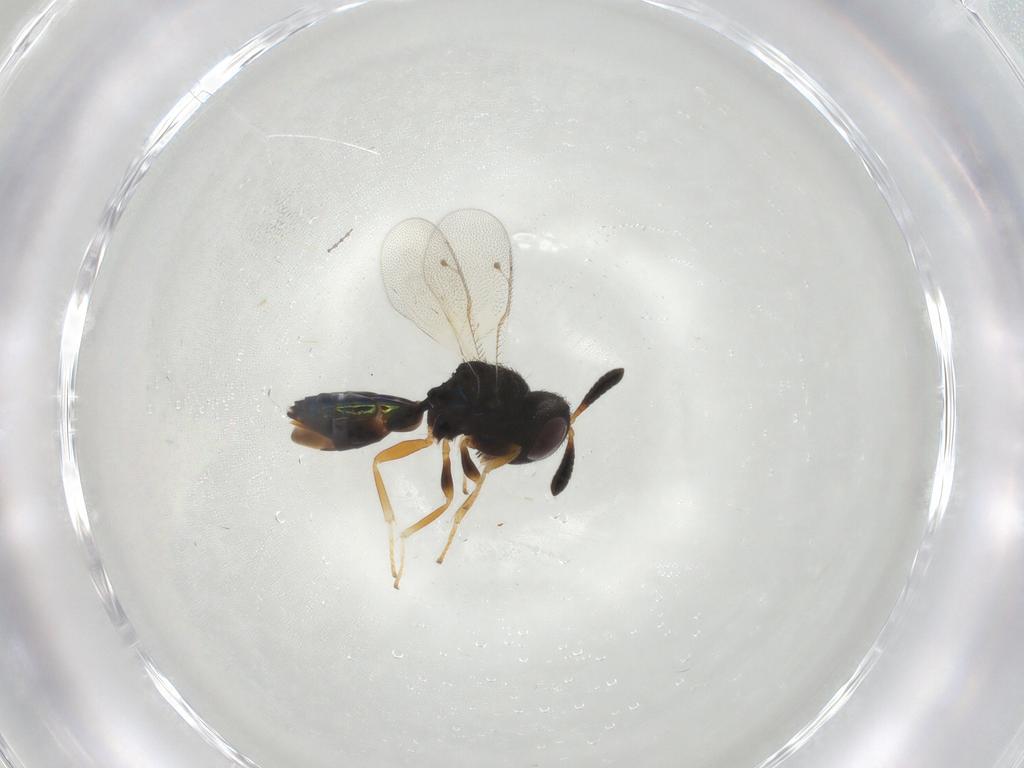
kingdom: Animalia
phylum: Arthropoda
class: Insecta
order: Hymenoptera
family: Pteromalidae
